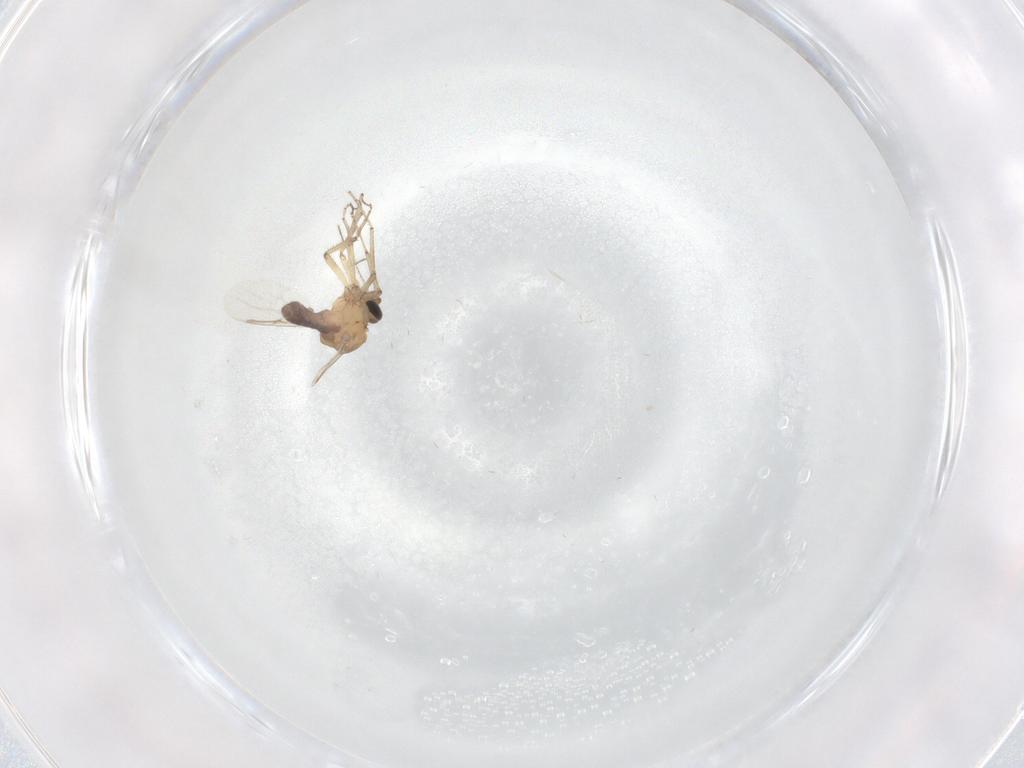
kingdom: Animalia
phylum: Arthropoda
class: Insecta
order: Diptera
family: Ceratopogonidae
